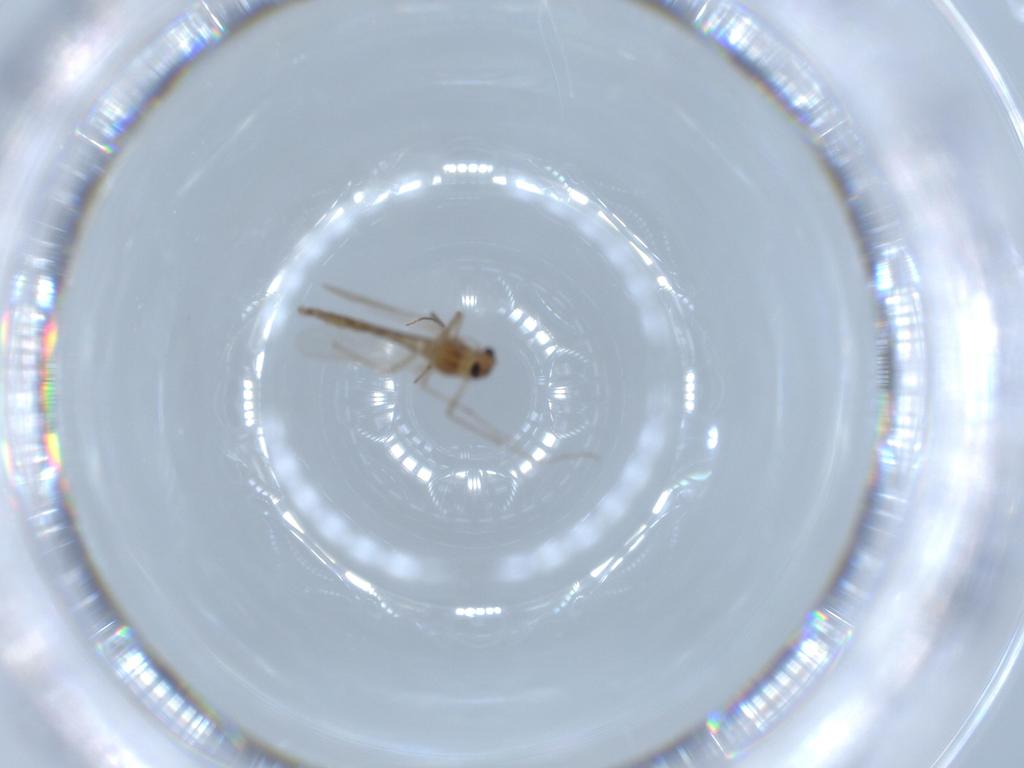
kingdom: Animalia
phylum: Arthropoda
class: Insecta
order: Diptera
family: Chironomidae
